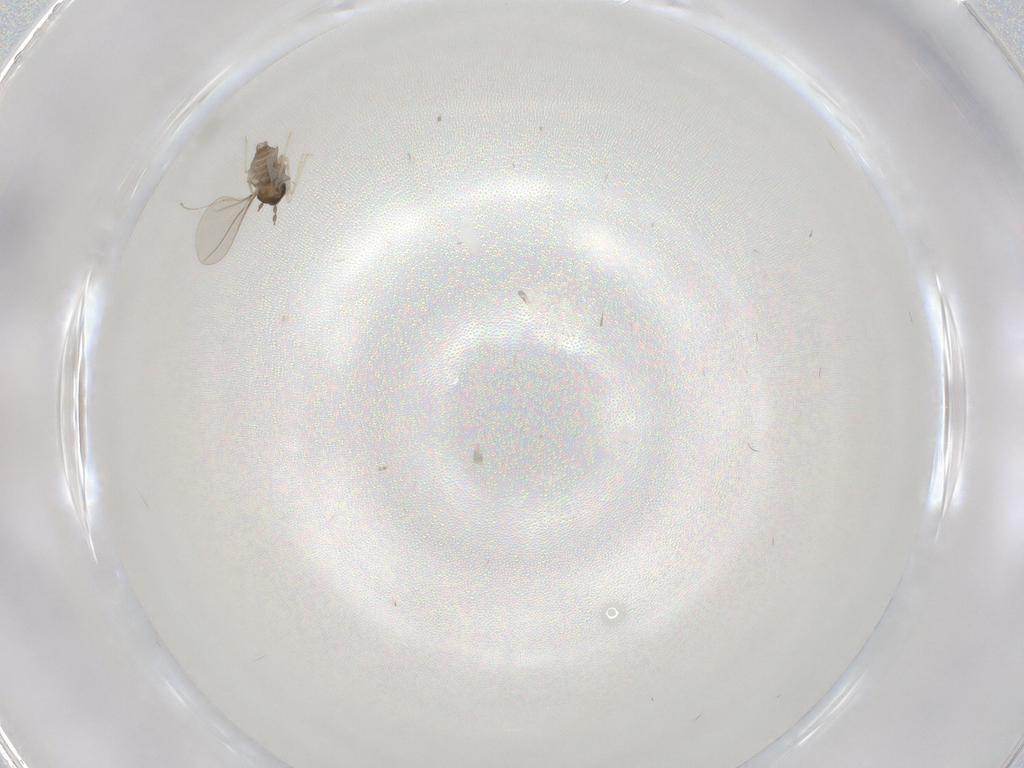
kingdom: Animalia
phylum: Arthropoda
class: Insecta
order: Diptera
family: Cecidomyiidae
